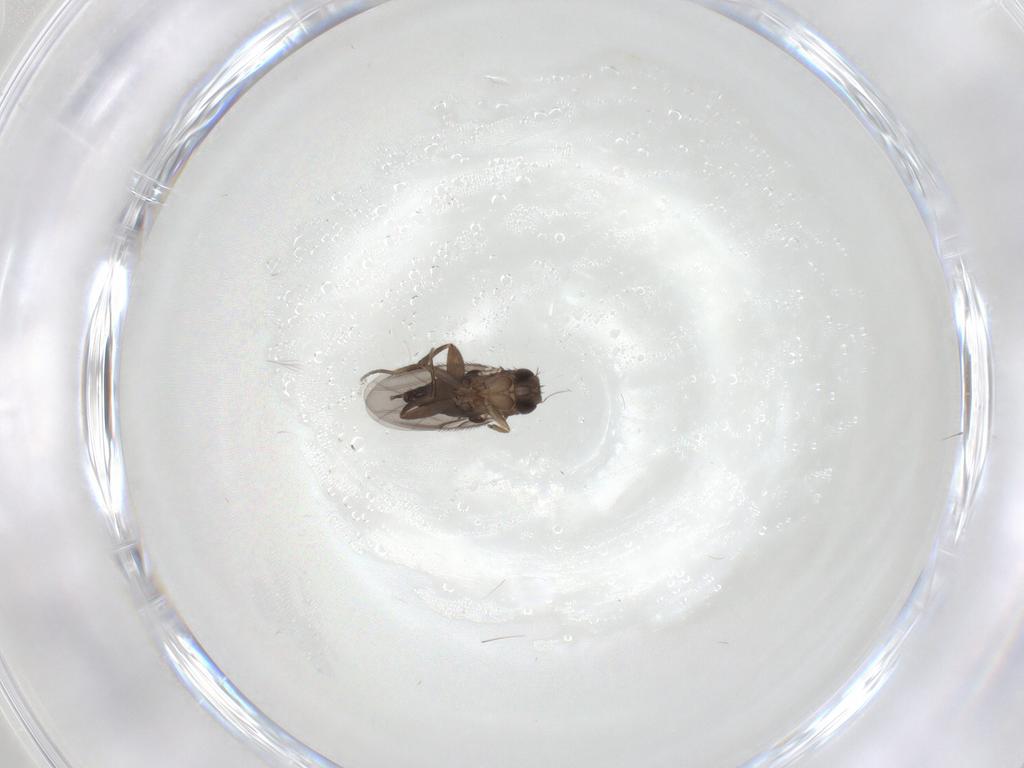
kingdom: Animalia
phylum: Arthropoda
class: Insecta
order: Diptera
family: Phoridae
